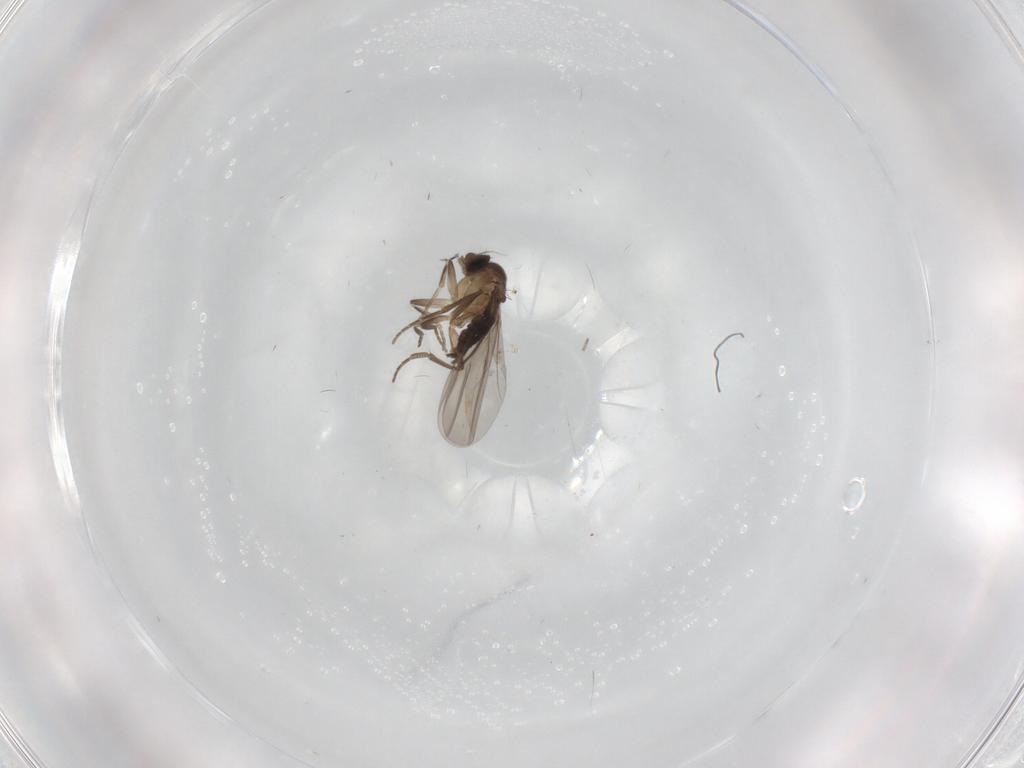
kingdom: Animalia
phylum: Arthropoda
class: Insecta
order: Diptera
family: Phoridae
